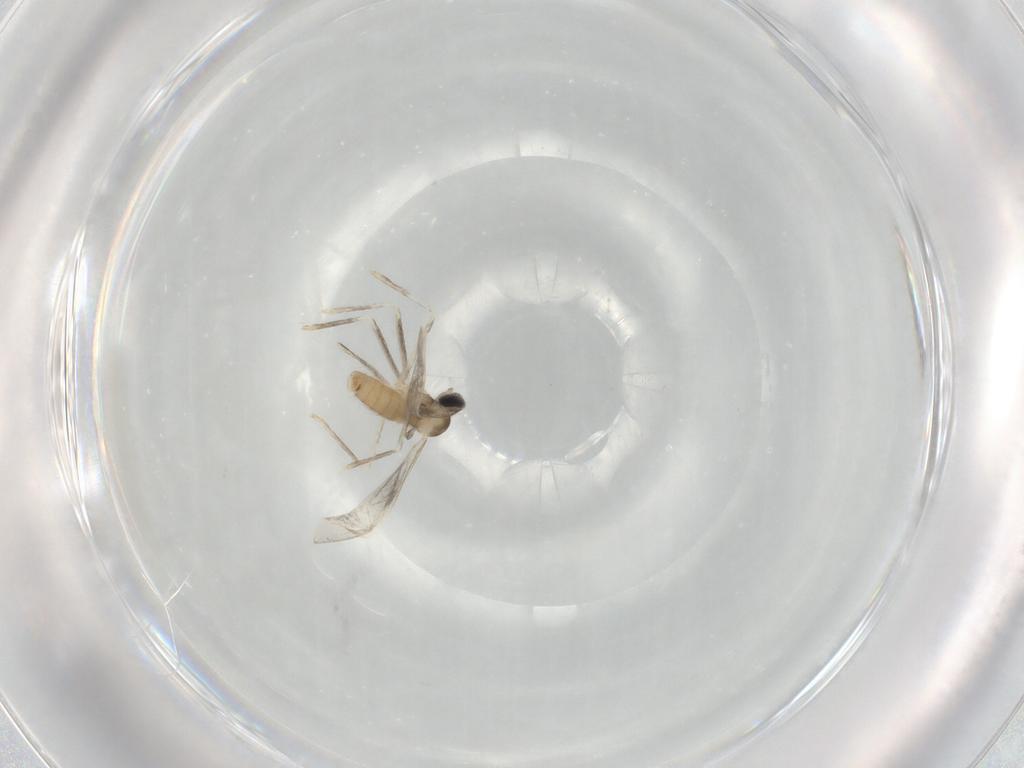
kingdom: Animalia
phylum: Arthropoda
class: Insecta
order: Diptera
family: Cecidomyiidae
